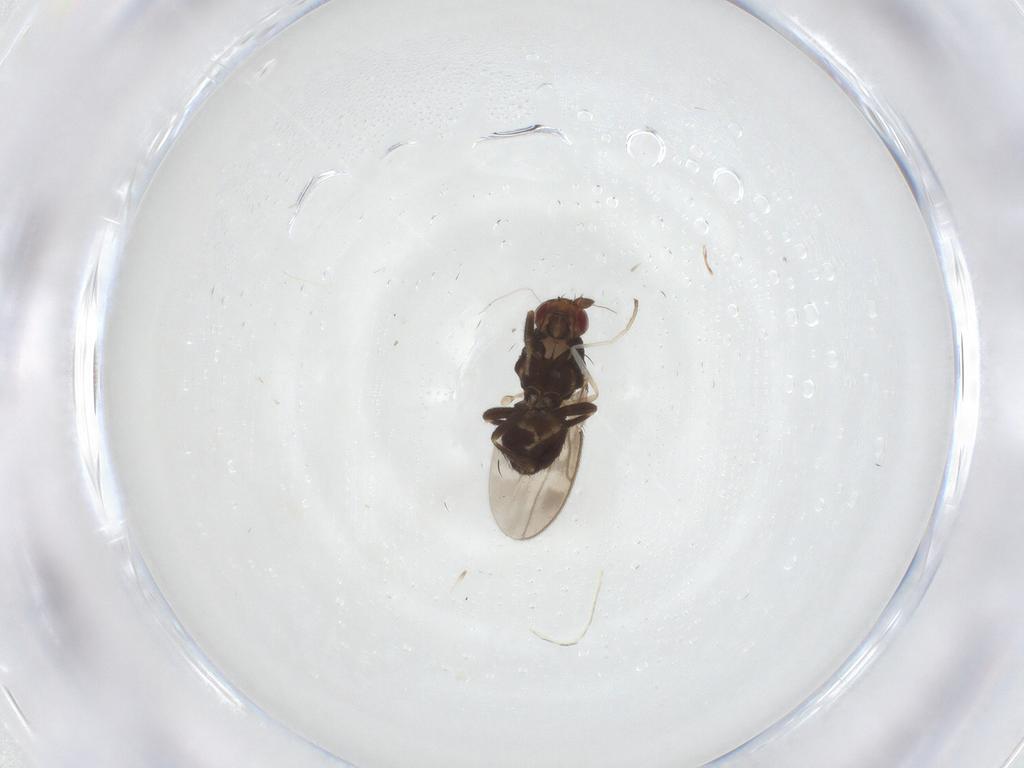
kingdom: Animalia
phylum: Arthropoda
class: Insecta
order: Diptera
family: Sphaeroceridae
